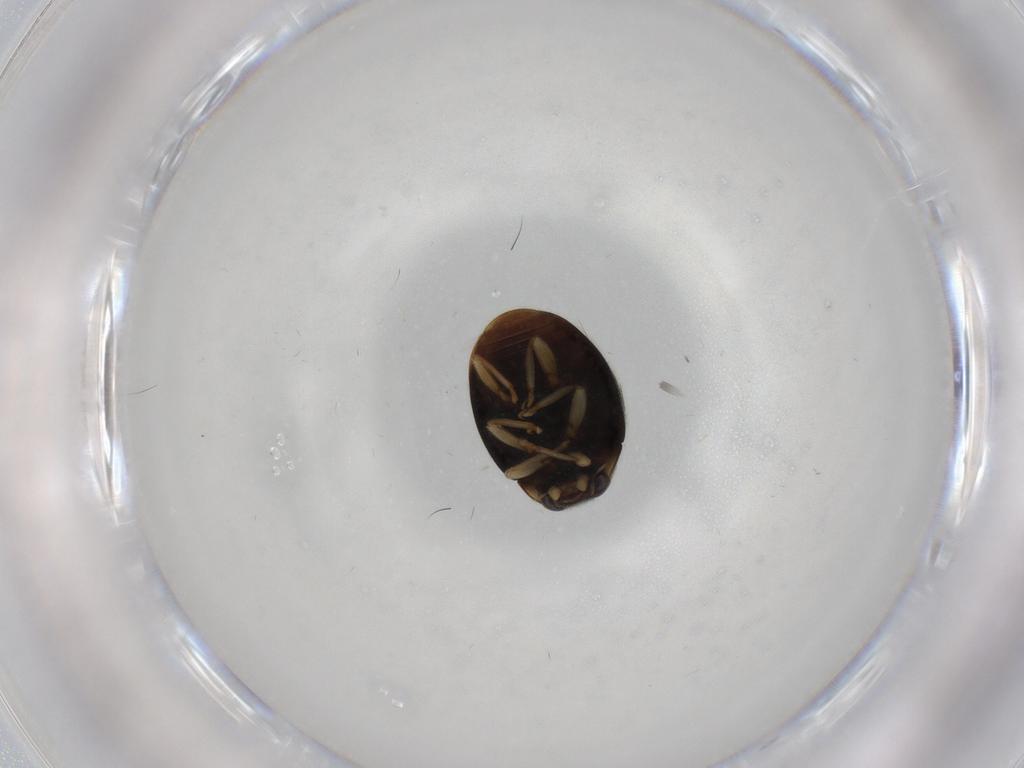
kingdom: Animalia
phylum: Arthropoda
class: Insecta
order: Coleoptera
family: Coccinellidae
